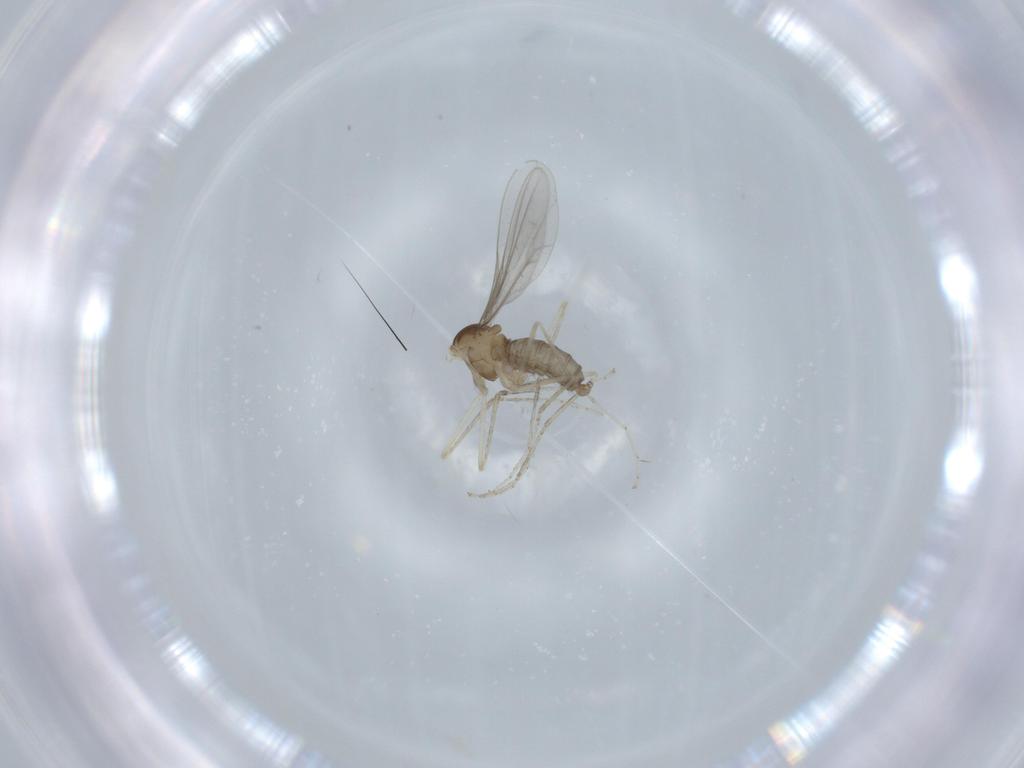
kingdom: Animalia
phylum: Arthropoda
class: Insecta
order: Diptera
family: Cecidomyiidae
